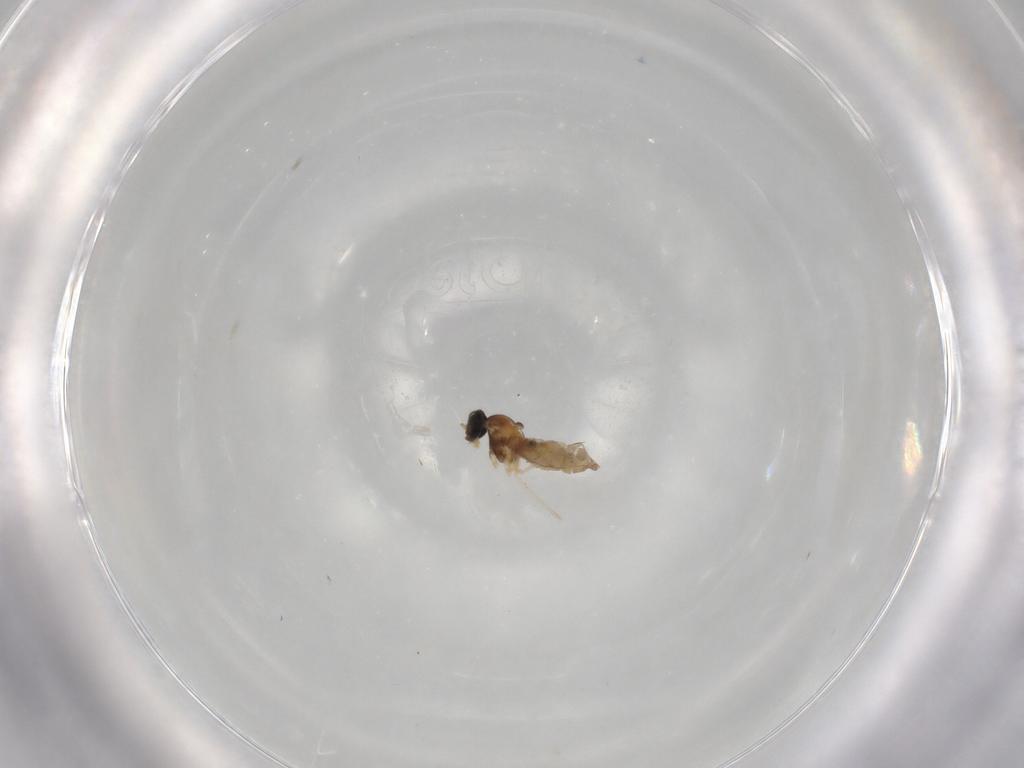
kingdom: Animalia
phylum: Arthropoda
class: Insecta
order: Diptera
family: Cecidomyiidae
